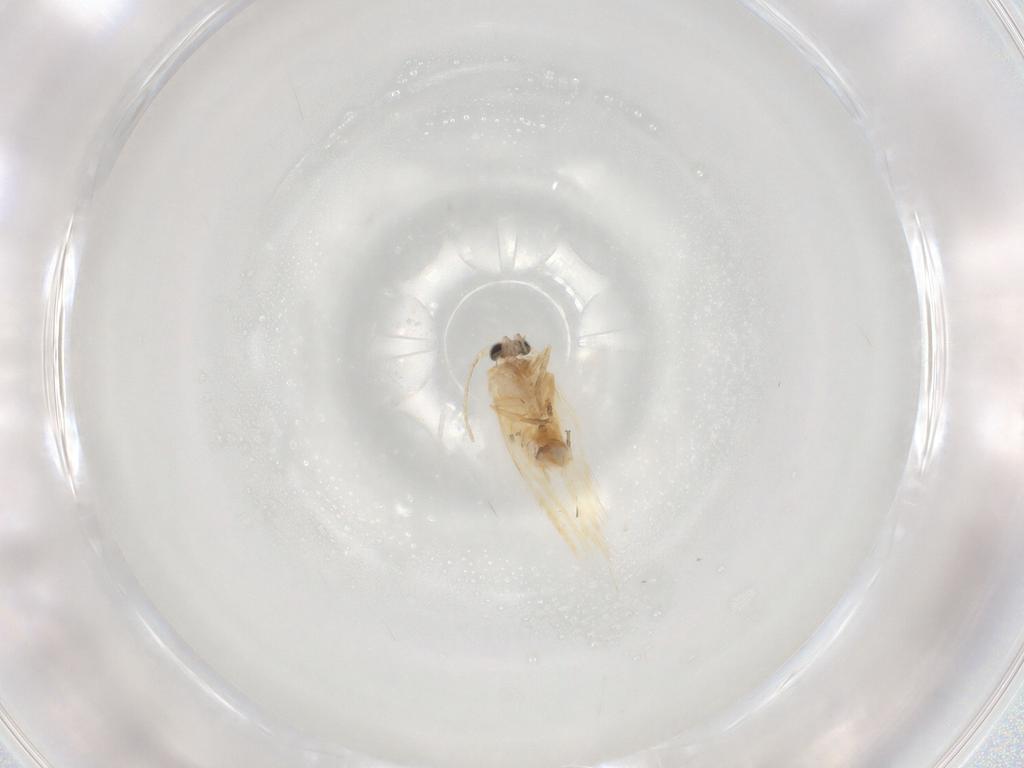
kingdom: Animalia
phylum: Arthropoda
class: Insecta
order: Lepidoptera
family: Nepticulidae
